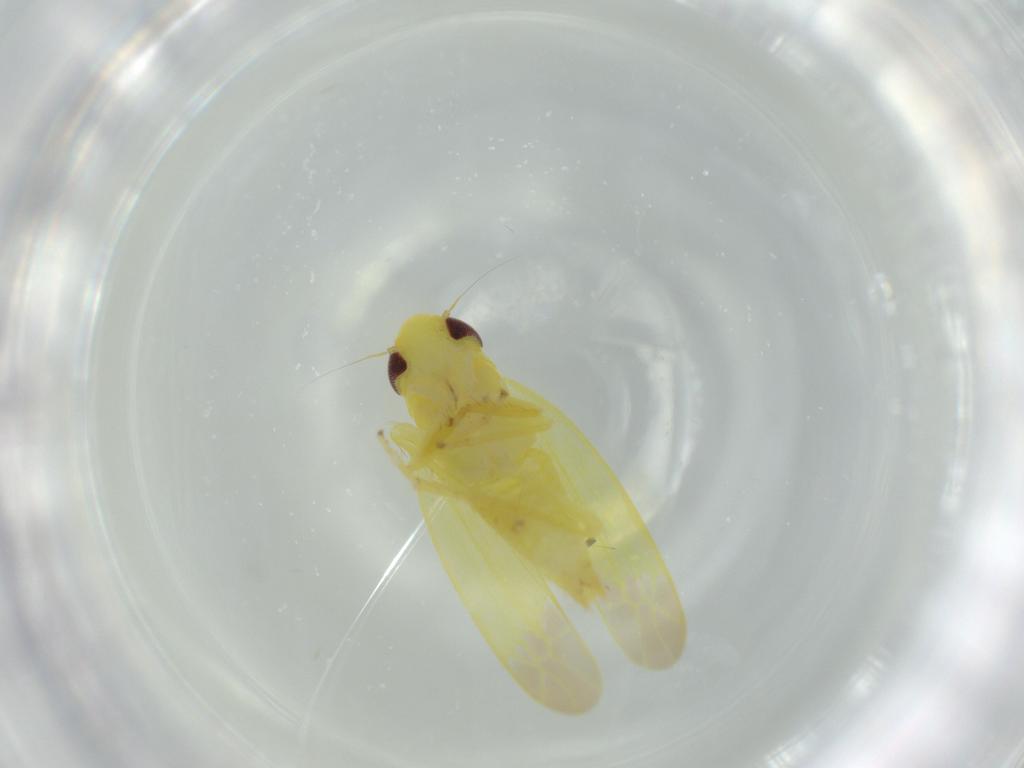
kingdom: Animalia
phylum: Arthropoda
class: Insecta
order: Hemiptera
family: Cicadellidae
